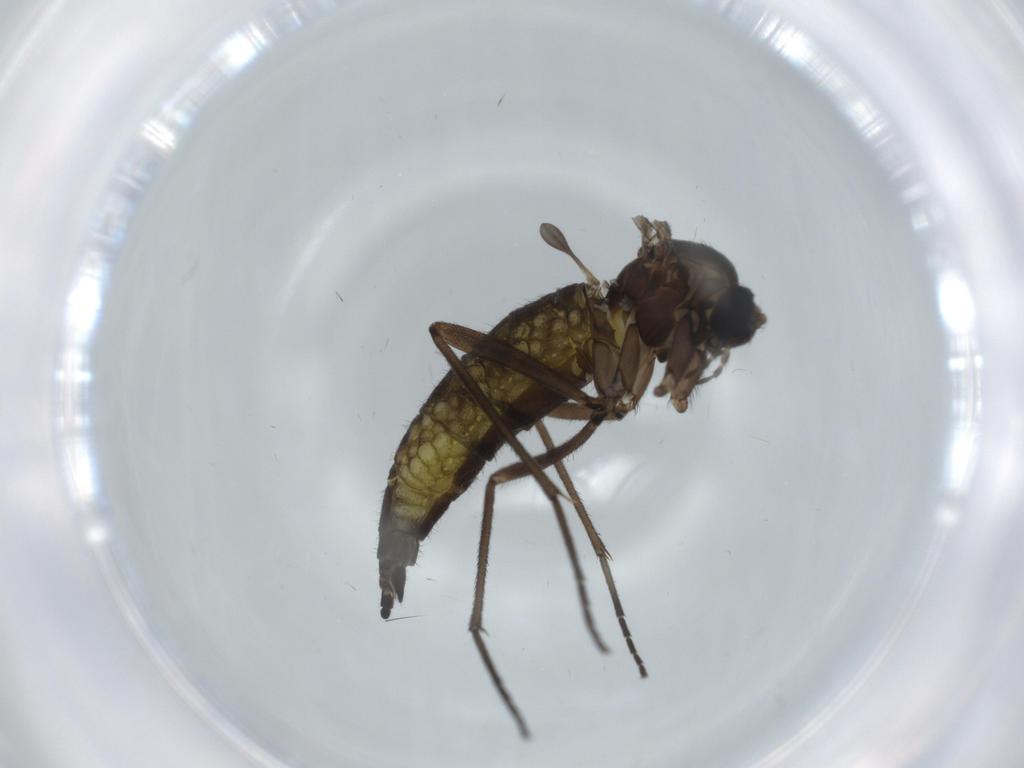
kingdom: Animalia
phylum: Arthropoda
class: Insecta
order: Diptera
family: Sciaridae
